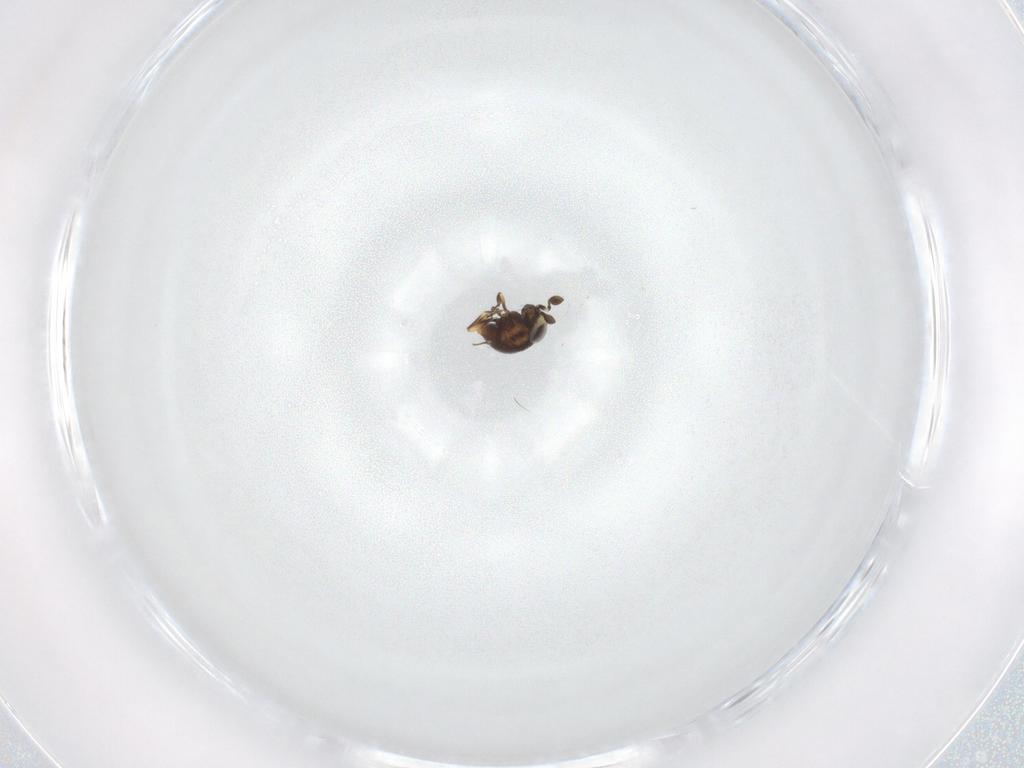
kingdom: Animalia
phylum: Arthropoda
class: Insecta
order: Hymenoptera
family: Scelionidae
